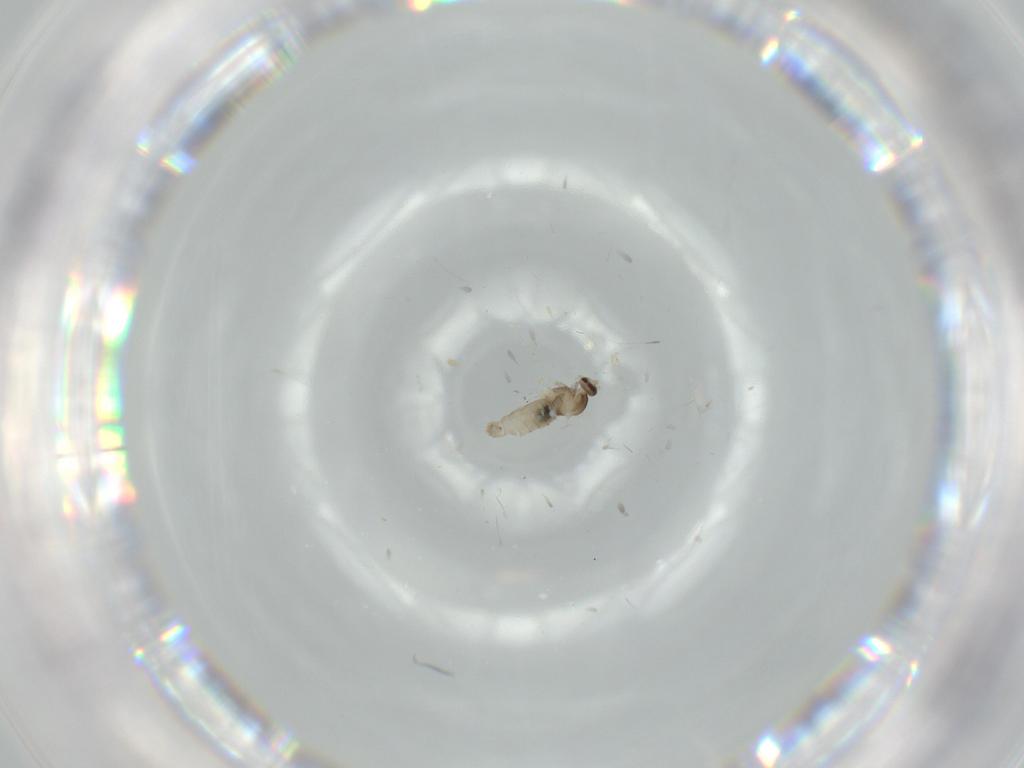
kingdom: Animalia
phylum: Arthropoda
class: Insecta
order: Diptera
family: Cecidomyiidae
